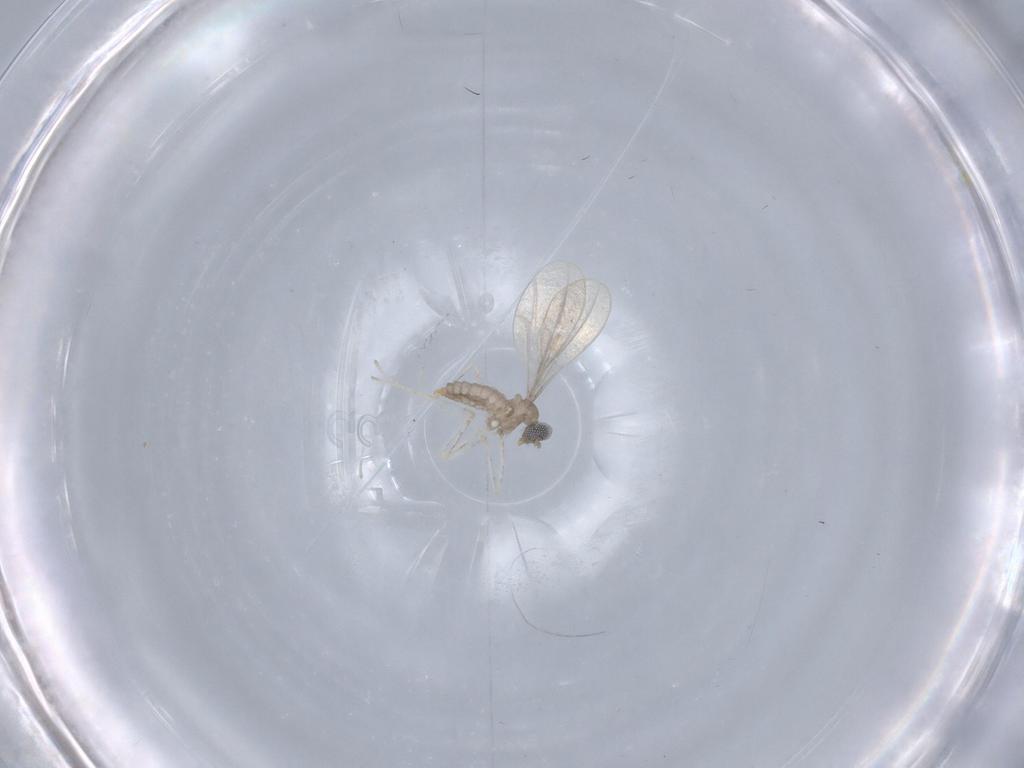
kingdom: Animalia
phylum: Arthropoda
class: Insecta
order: Diptera
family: Cecidomyiidae
